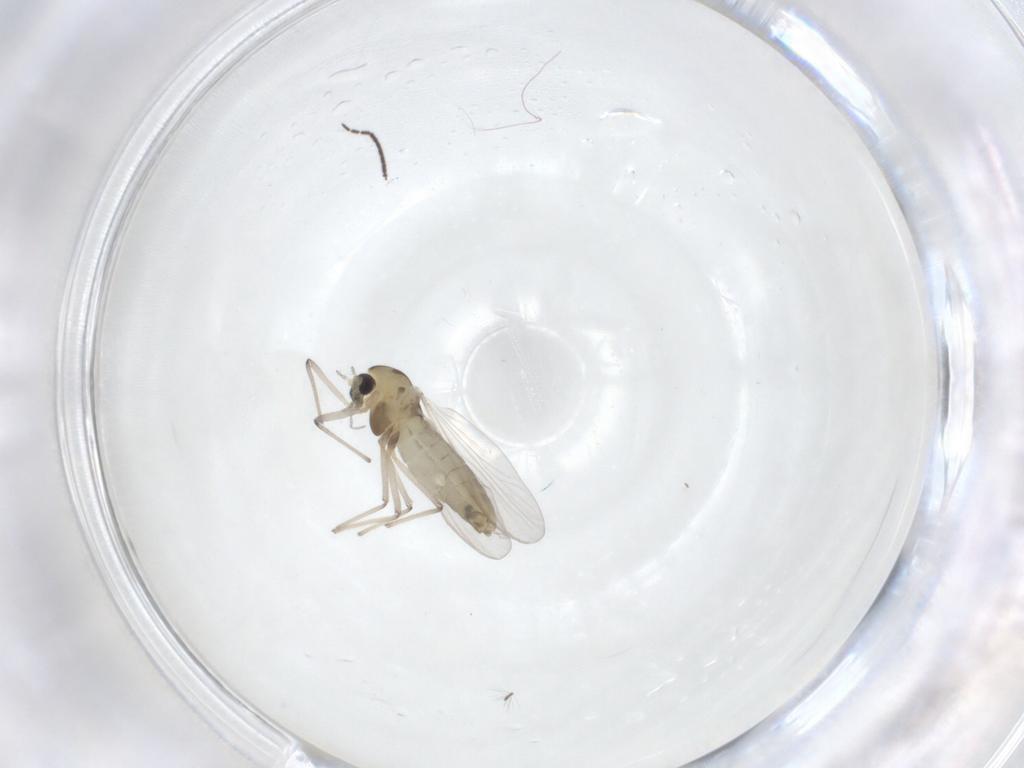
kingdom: Animalia
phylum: Arthropoda
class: Insecta
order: Diptera
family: Chironomidae
